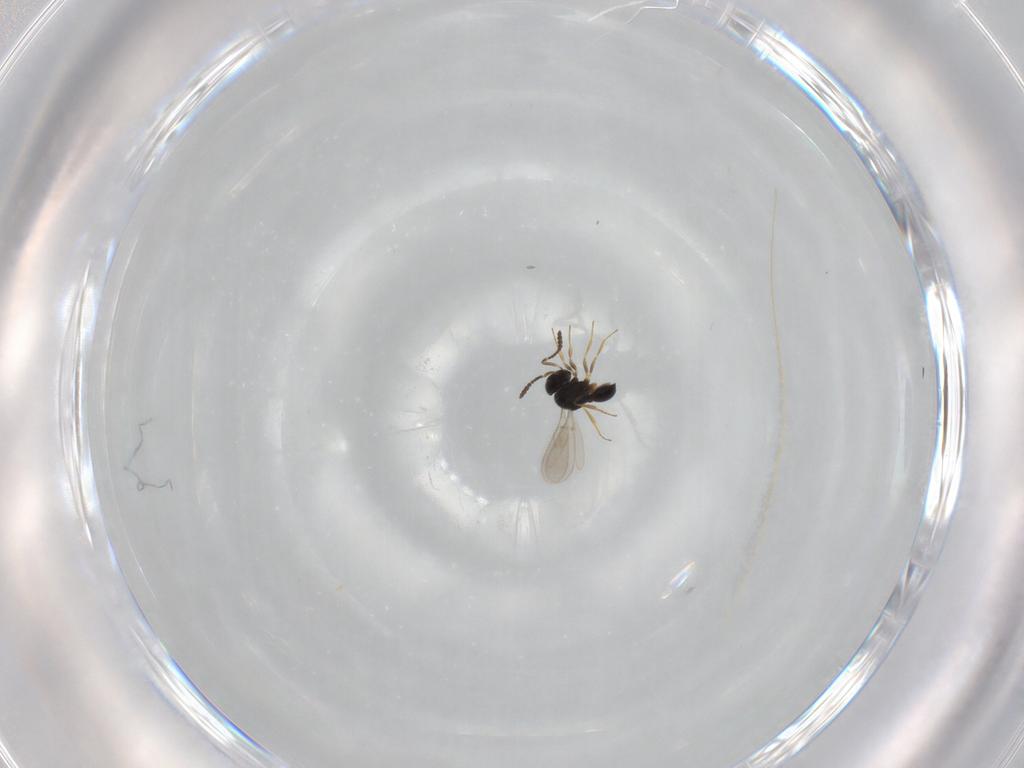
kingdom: Animalia
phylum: Arthropoda
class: Insecta
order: Hymenoptera
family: Scelionidae
